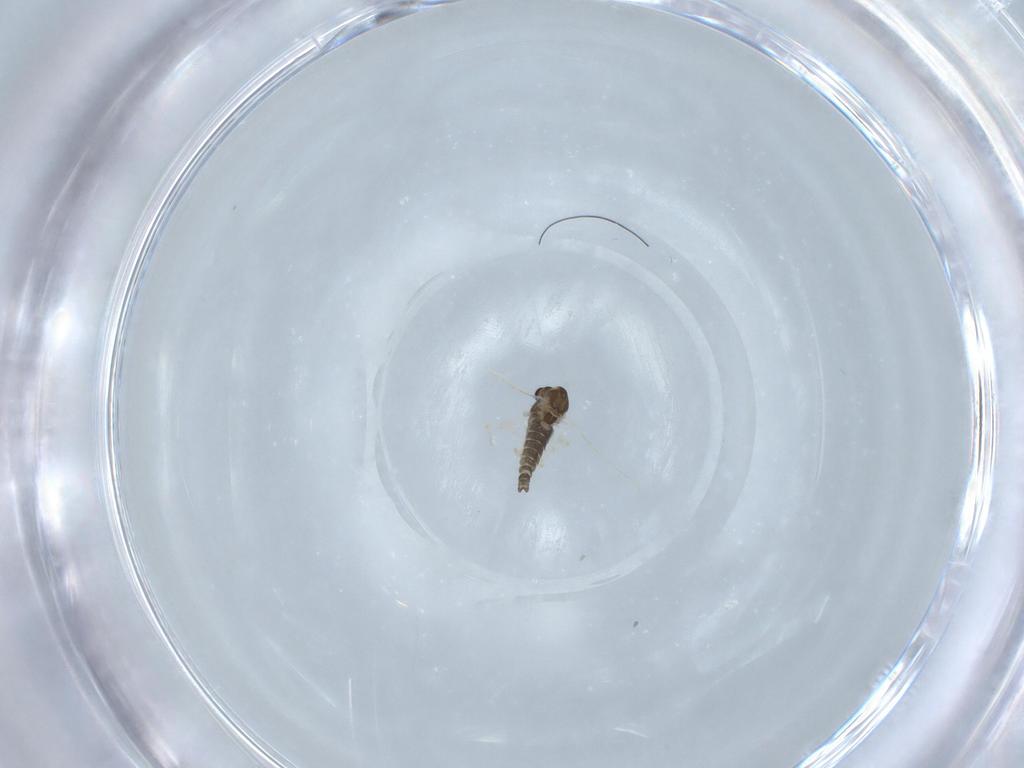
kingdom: Animalia
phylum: Arthropoda
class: Insecta
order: Diptera
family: Chironomidae
